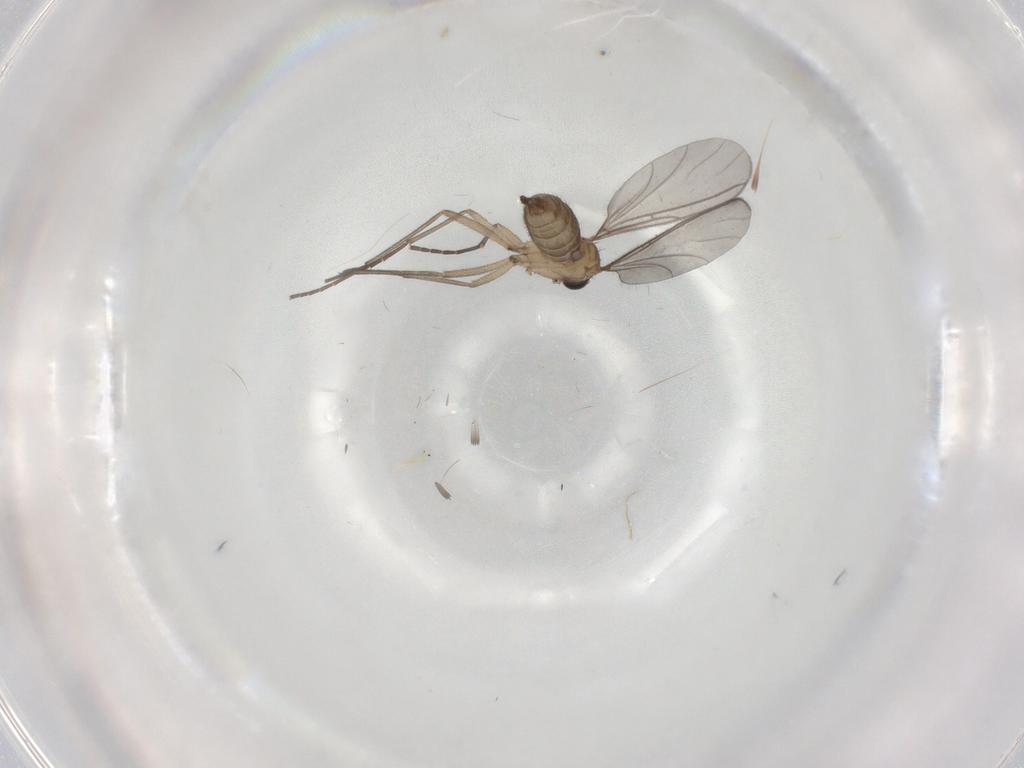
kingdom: Animalia
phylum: Arthropoda
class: Insecta
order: Diptera
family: Sciaridae
